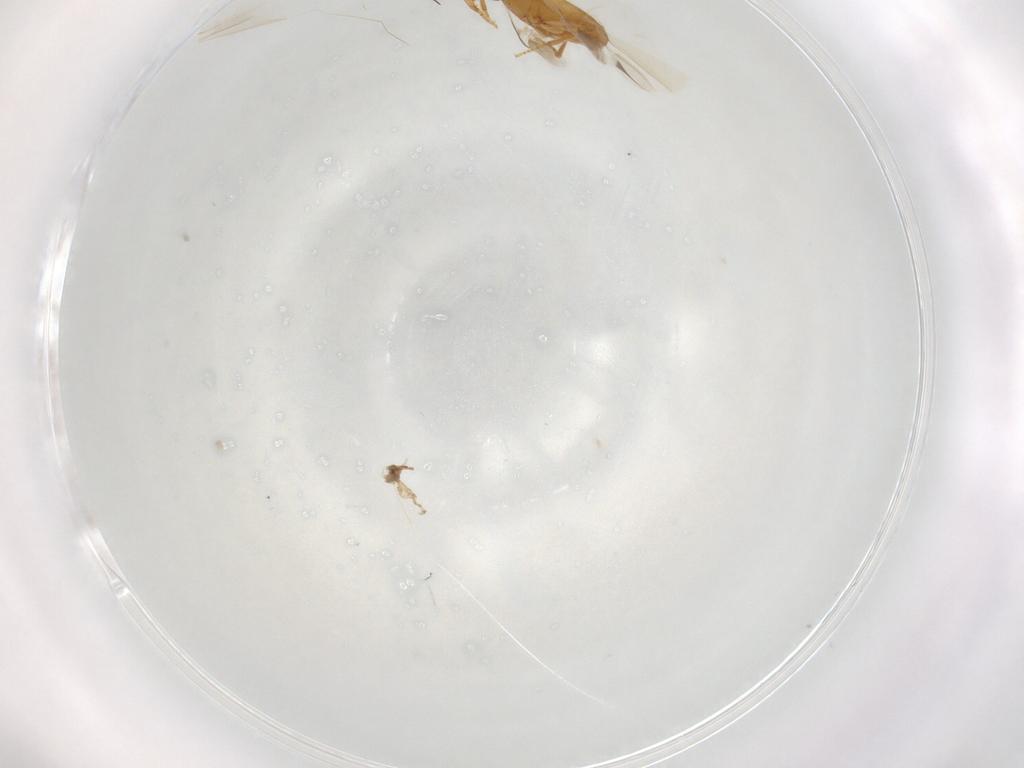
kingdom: Animalia
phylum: Arthropoda
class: Insecta
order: Coleoptera
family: Carabidae
